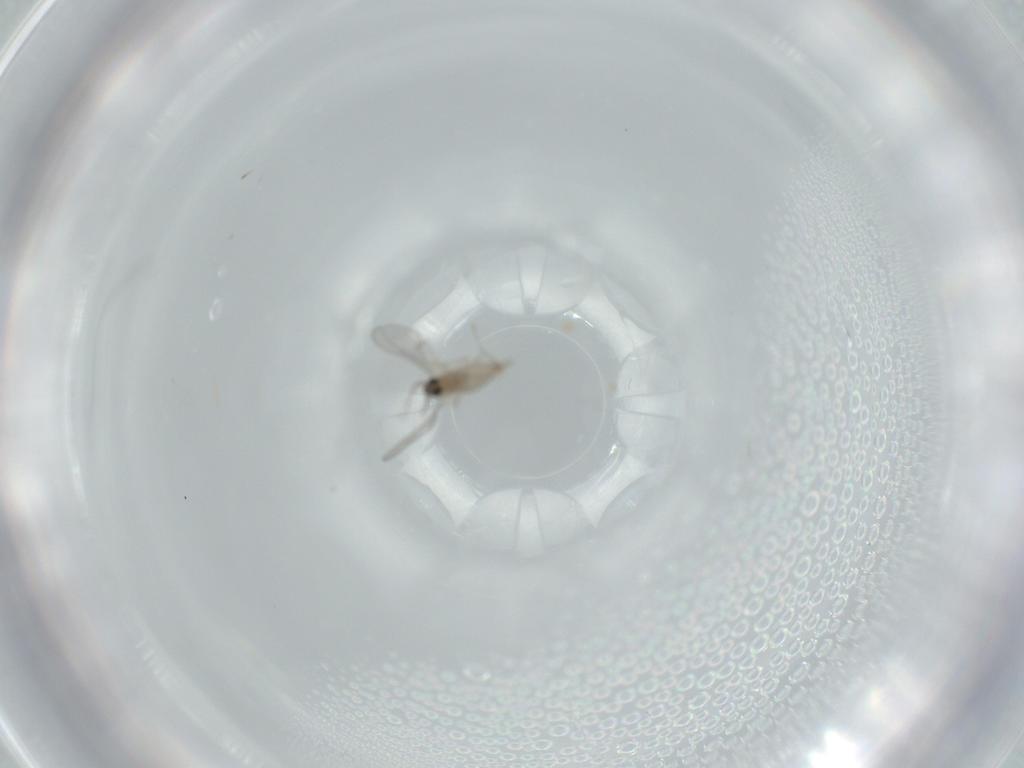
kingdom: Animalia
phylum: Arthropoda
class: Insecta
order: Diptera
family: Cecidomyiidae
